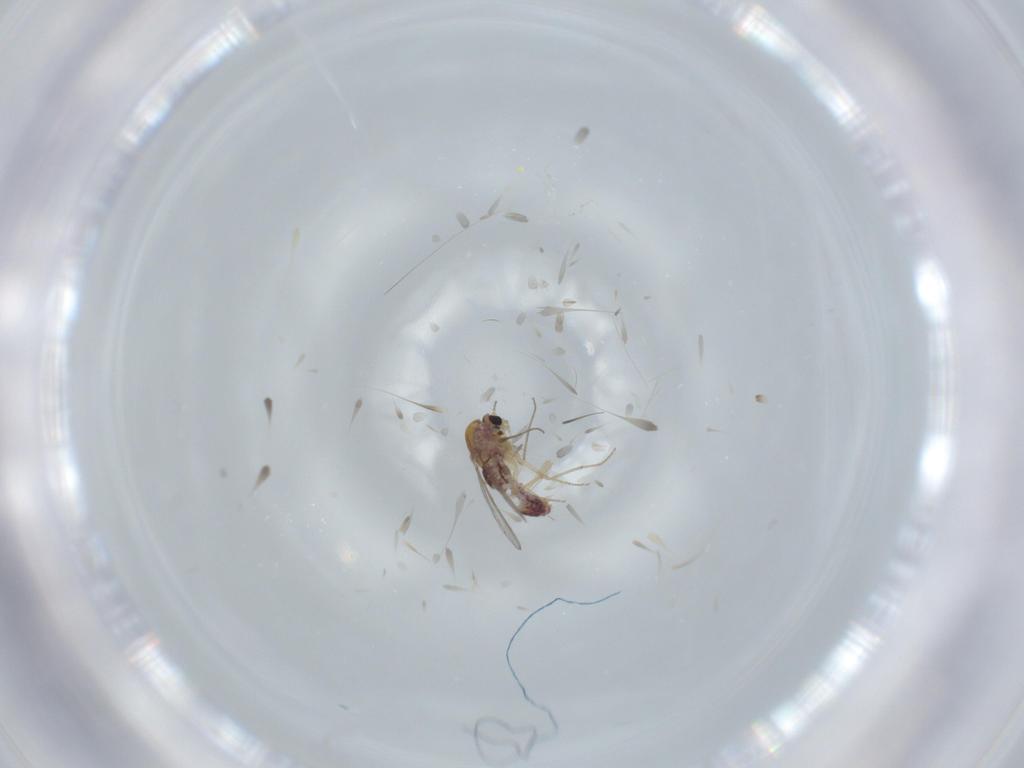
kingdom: Animalia
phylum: Arthropoda
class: Insecta
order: Diptera
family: Chironomidae
